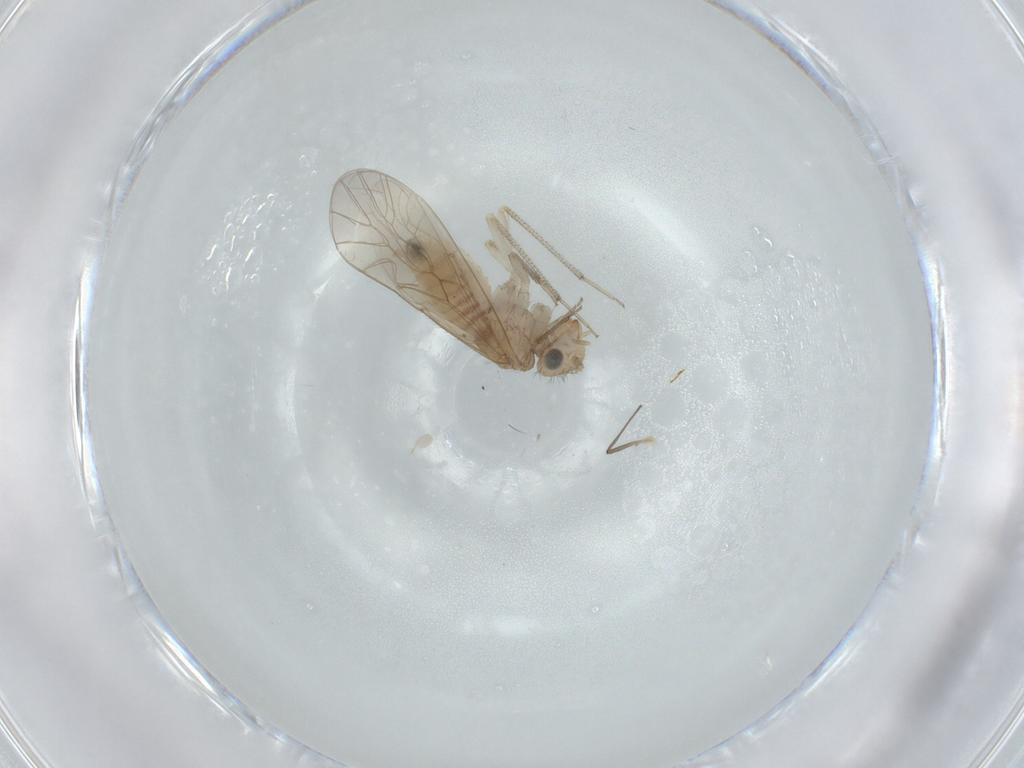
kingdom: Animalia
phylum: Arthropoda
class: Insecta
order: Psocodea
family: Caeciliusidae
